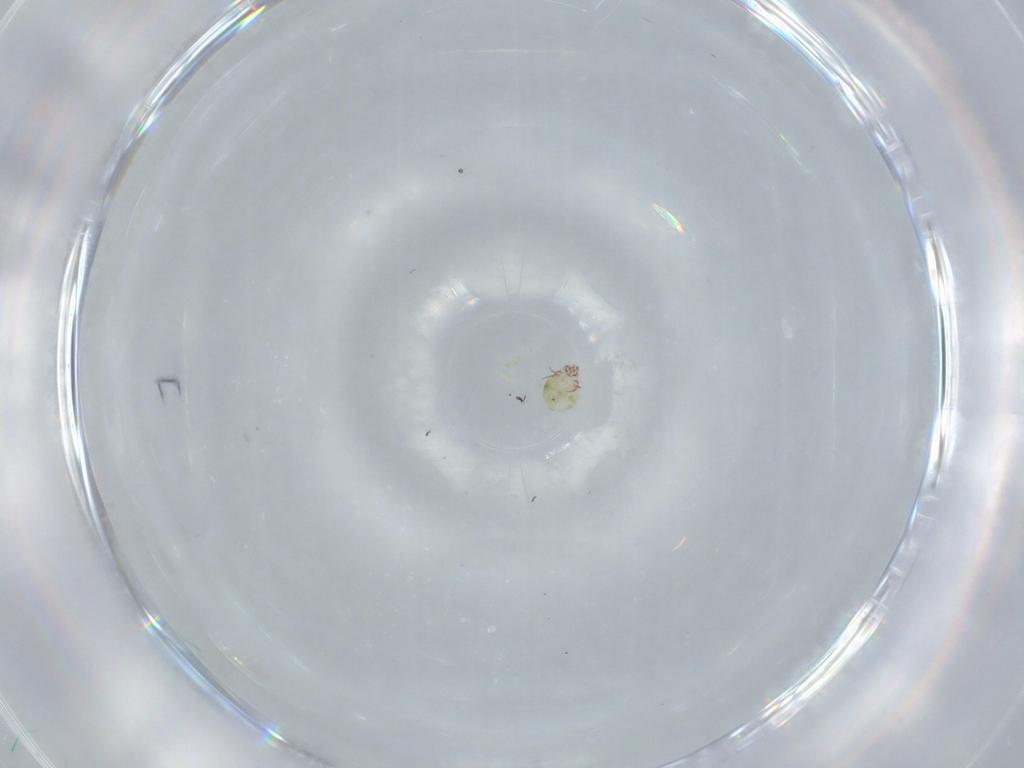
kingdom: Animalia
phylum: Arthropoda
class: Arachnida
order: Sarcoptiformes
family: Epidermoptidae
